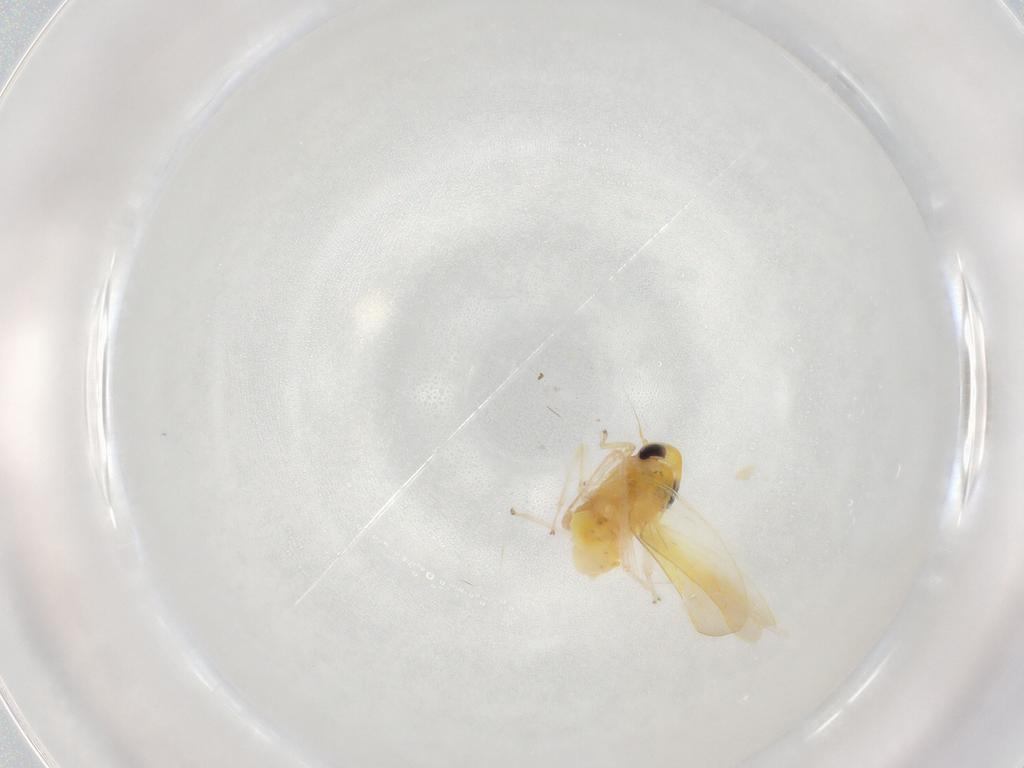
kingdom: Animalia
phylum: Arthropoda
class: Insecta
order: Hemiptera
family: Cicadellidae
